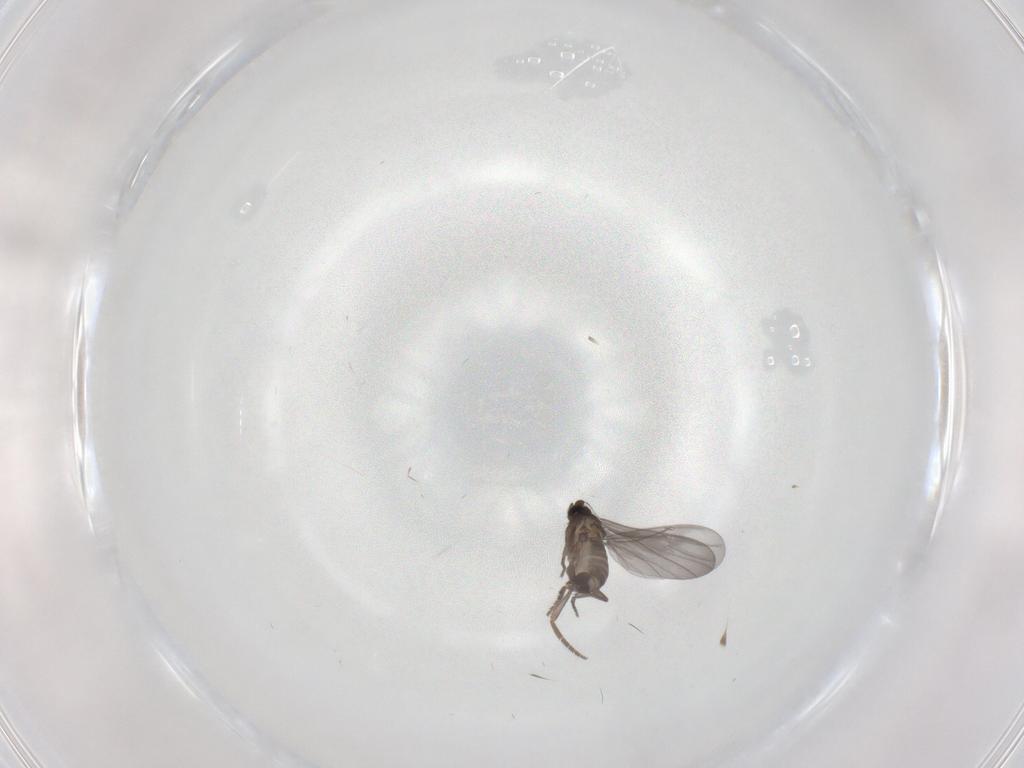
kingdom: Animalia
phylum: Arthropoda
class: Insecta
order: Diptera
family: Phoridae
